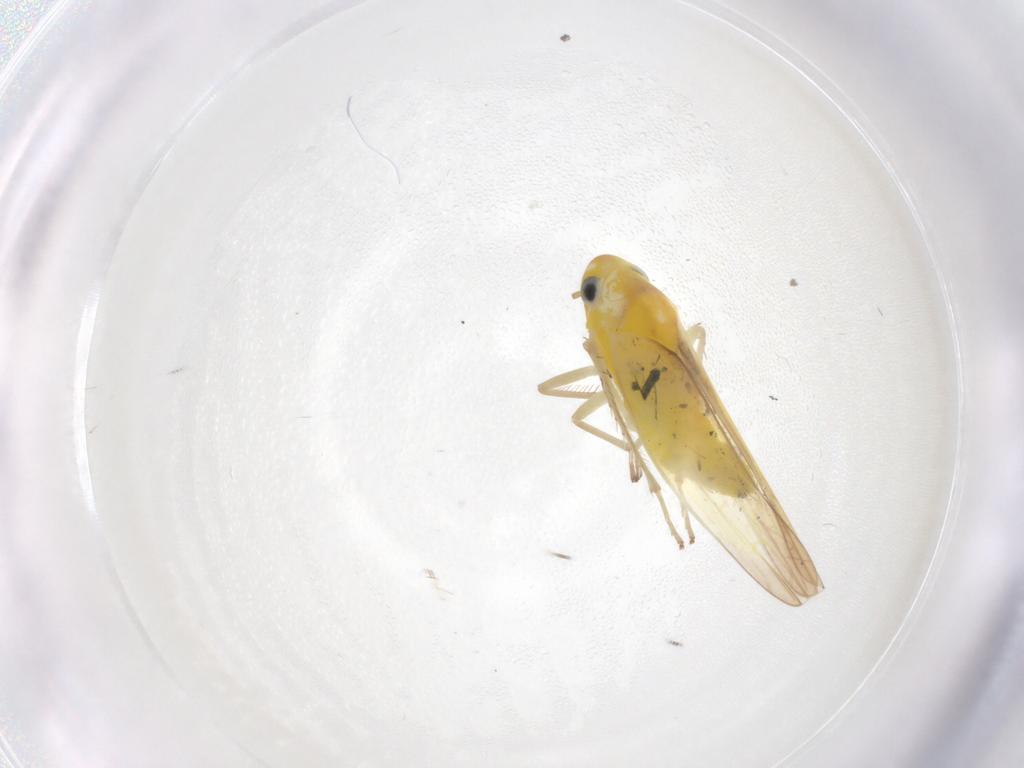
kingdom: Animalia
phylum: Arthropoda
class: Insecta
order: Hemiptera
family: Cicadellidae
